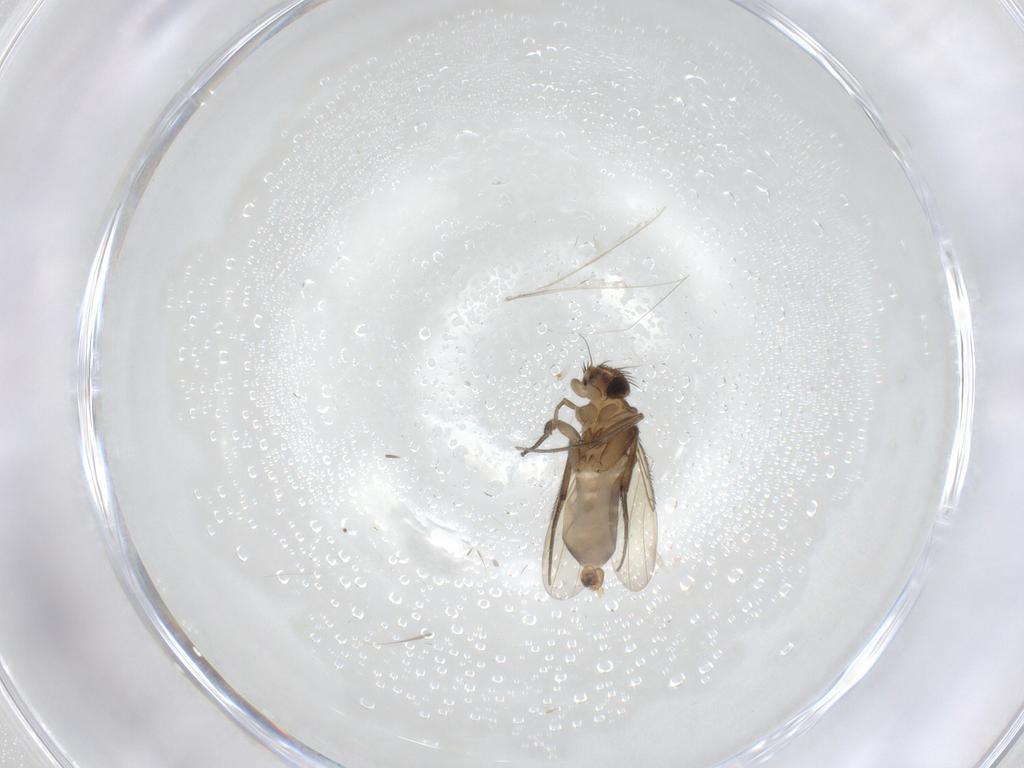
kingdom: Animalia
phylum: Arthropoda
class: Insecta
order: Diptera
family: Phoridae
